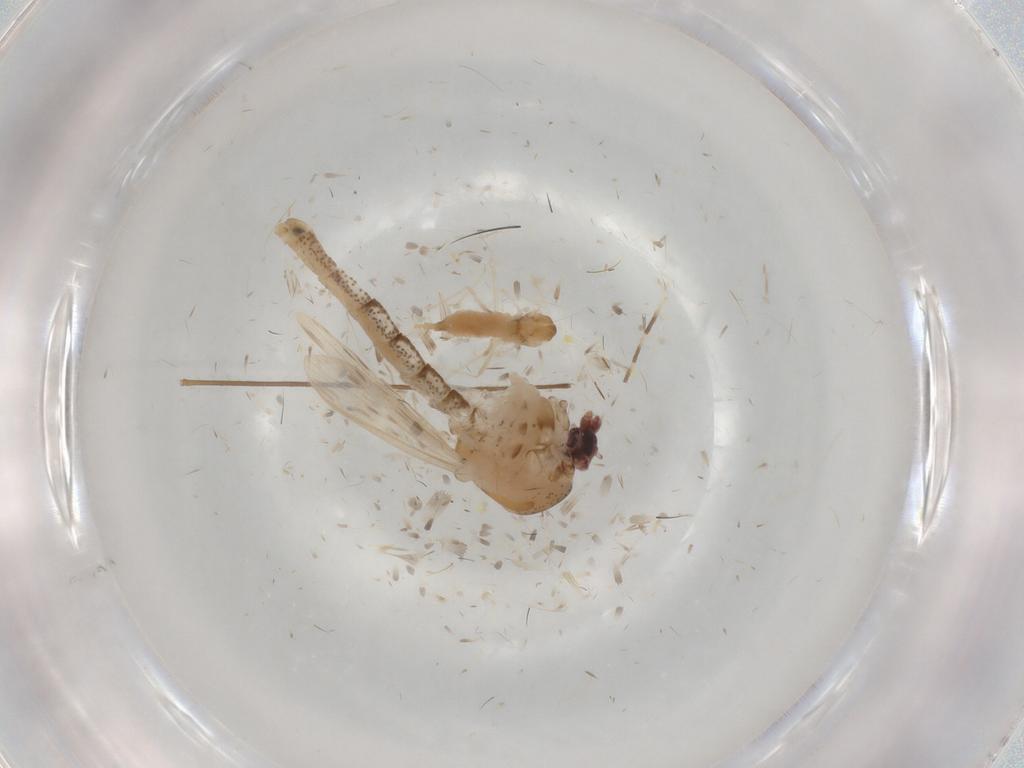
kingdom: Animalia
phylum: Arthropoda
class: Insecta
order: Diptera
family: Chaoboridae
